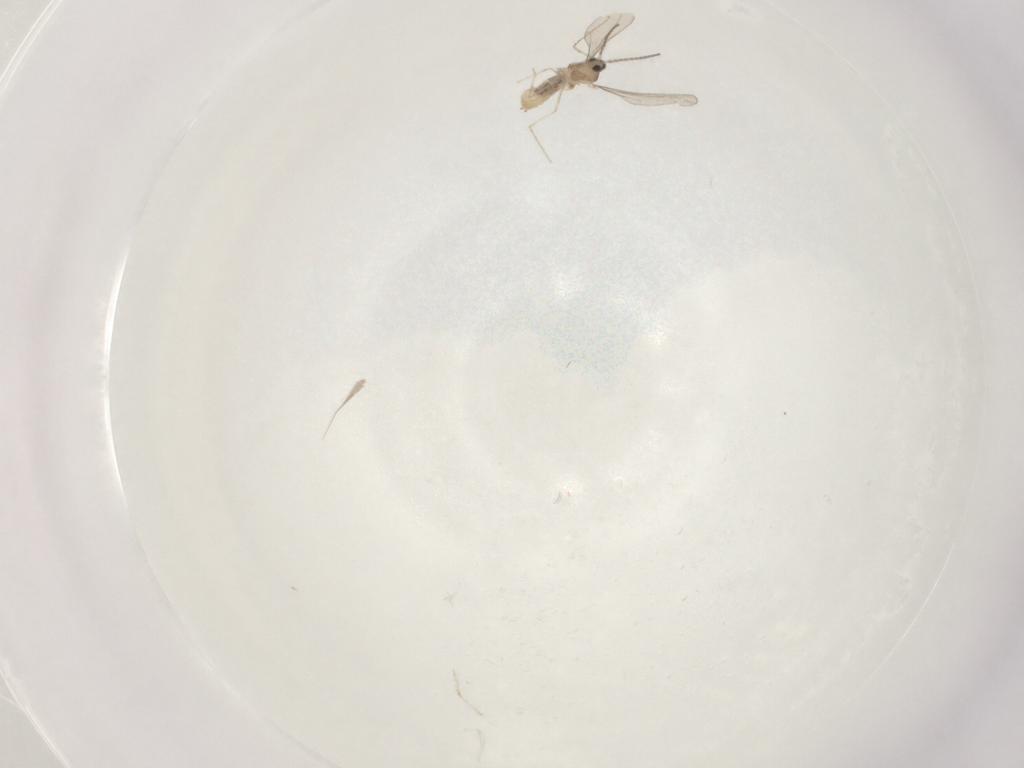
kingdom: Animalia
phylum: Arthropoda
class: Insecta
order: Diptera
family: Cecidomyiidae
